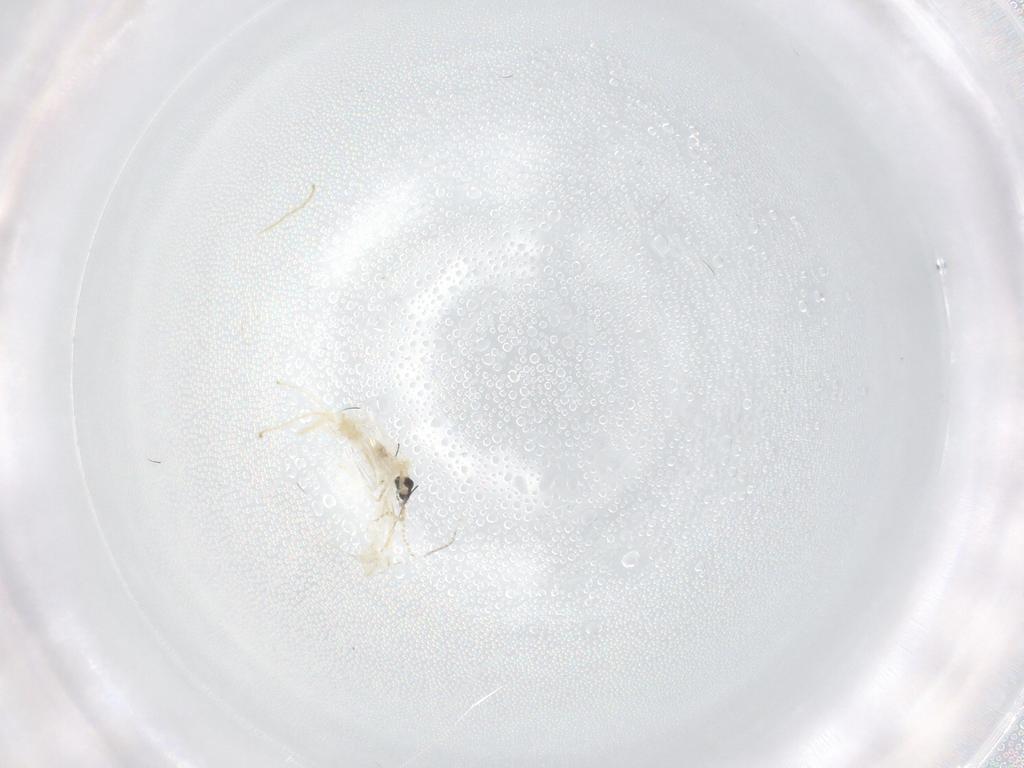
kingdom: Animalia
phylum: Arthropoda
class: Insecta
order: Diptera
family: Cecidomyiidae
